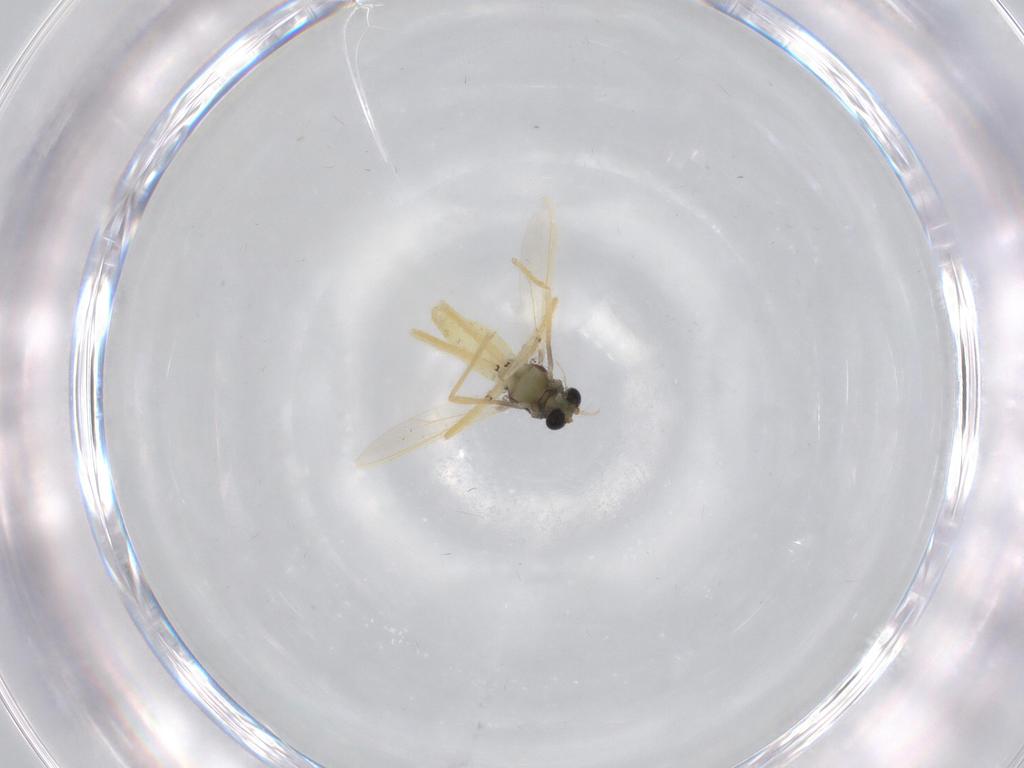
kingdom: Animalia
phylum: Arthropoda
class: Insecta
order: Diptera
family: Chironomidae
